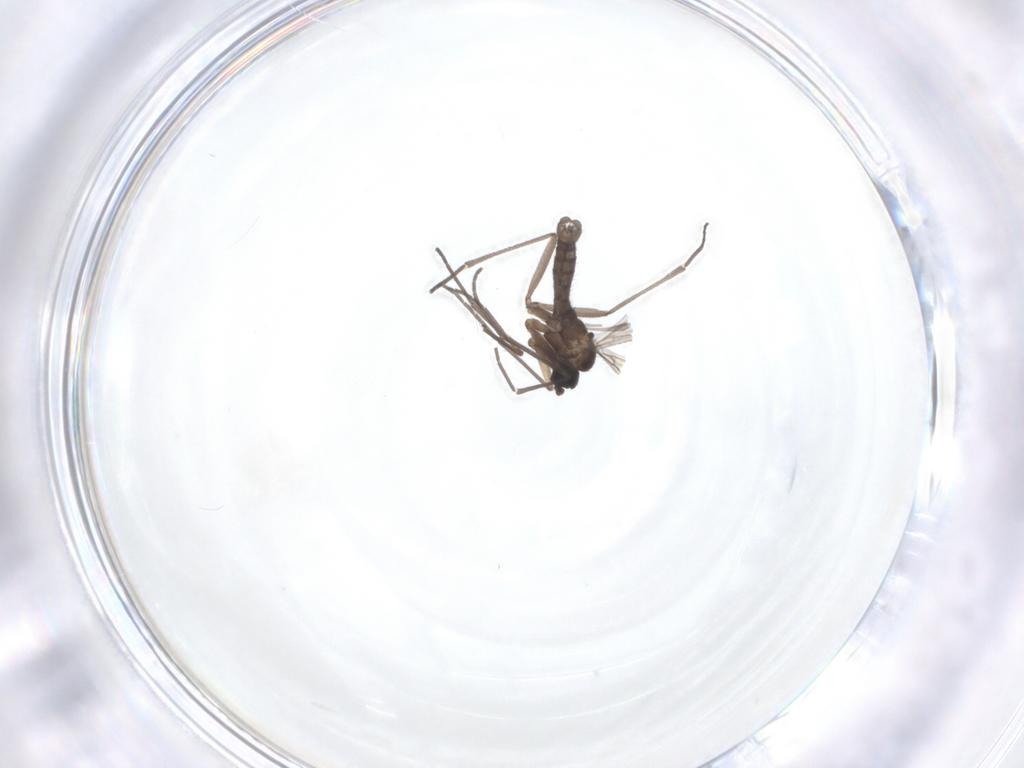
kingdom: Animalia
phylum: Arthropoda
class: Insecta
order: Diptera
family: Sciaridae
